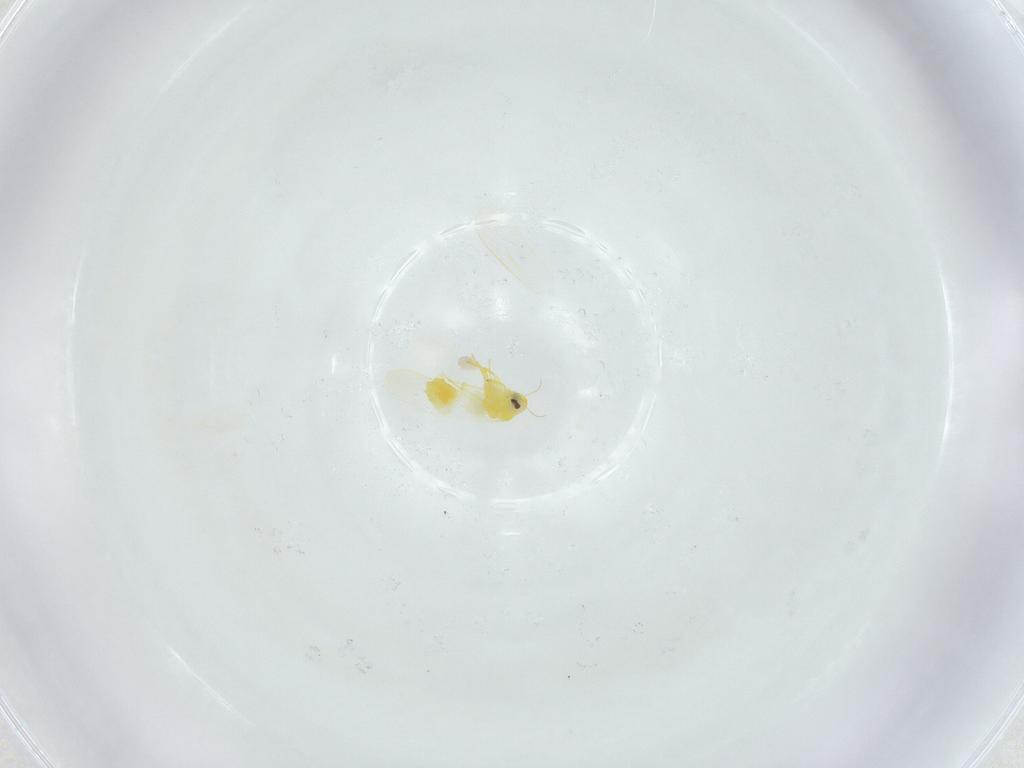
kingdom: Animalia
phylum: Arthropoda
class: Insecta
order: Hemiptera
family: Aleyrodidae
